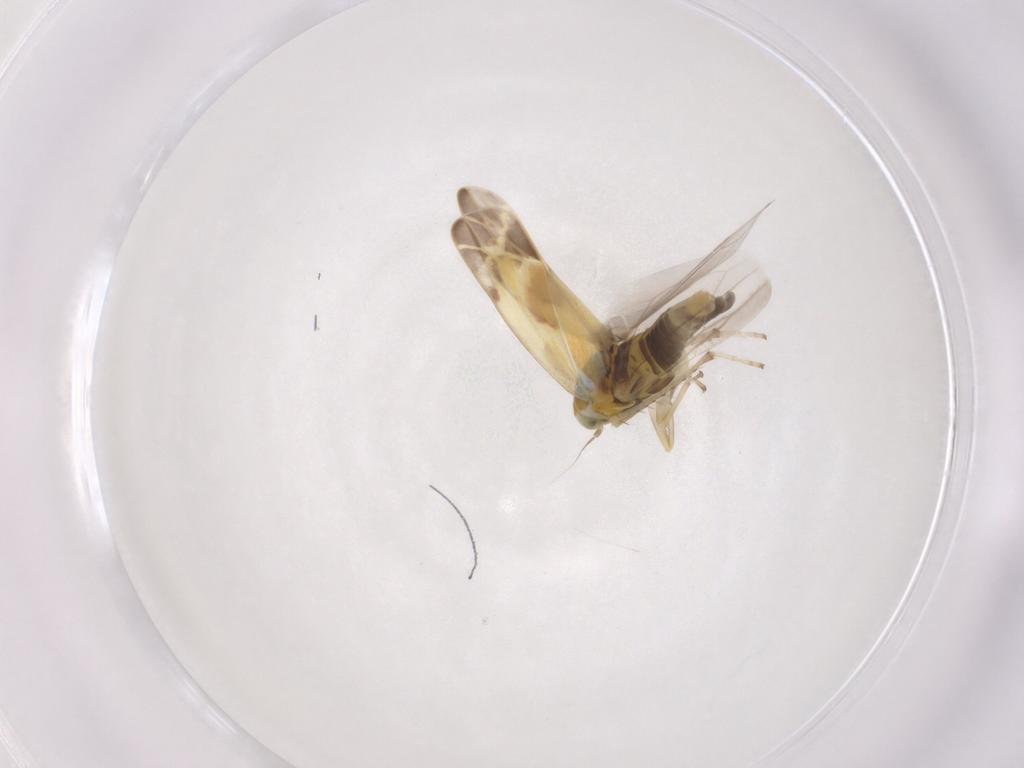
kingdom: Animalia
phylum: Arthropoda
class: Insecta
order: Hemiptera
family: Cicadellidae
